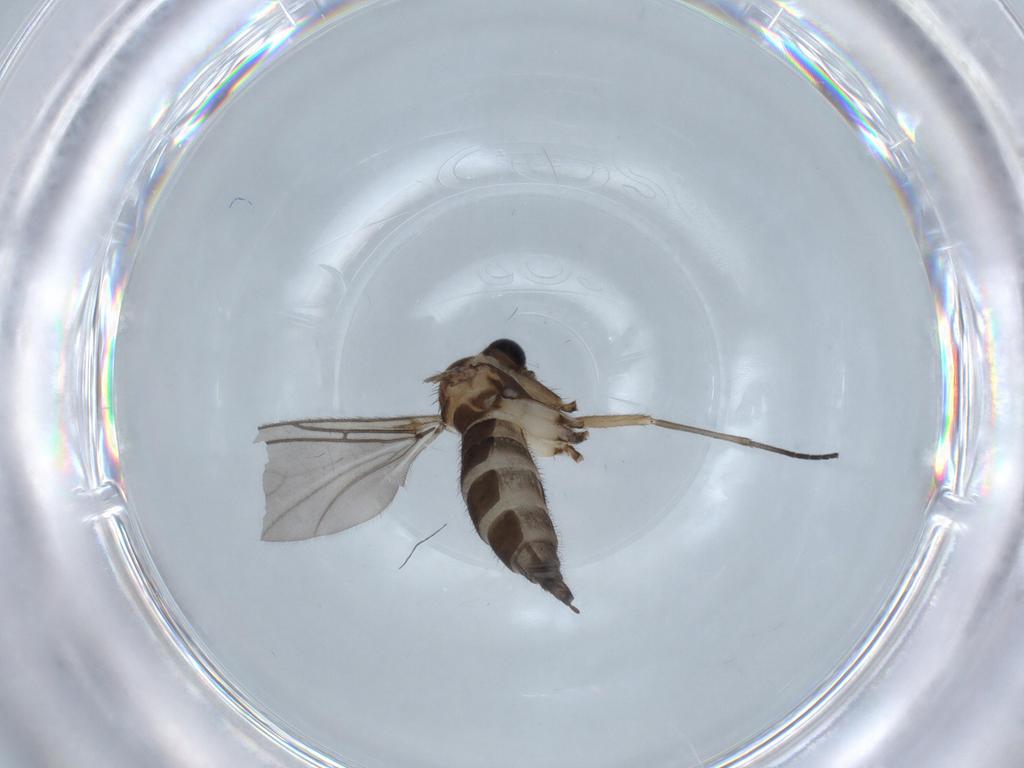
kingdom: Animalia
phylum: Arthropoda
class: Insecta
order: Diptera
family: Sciaridae
